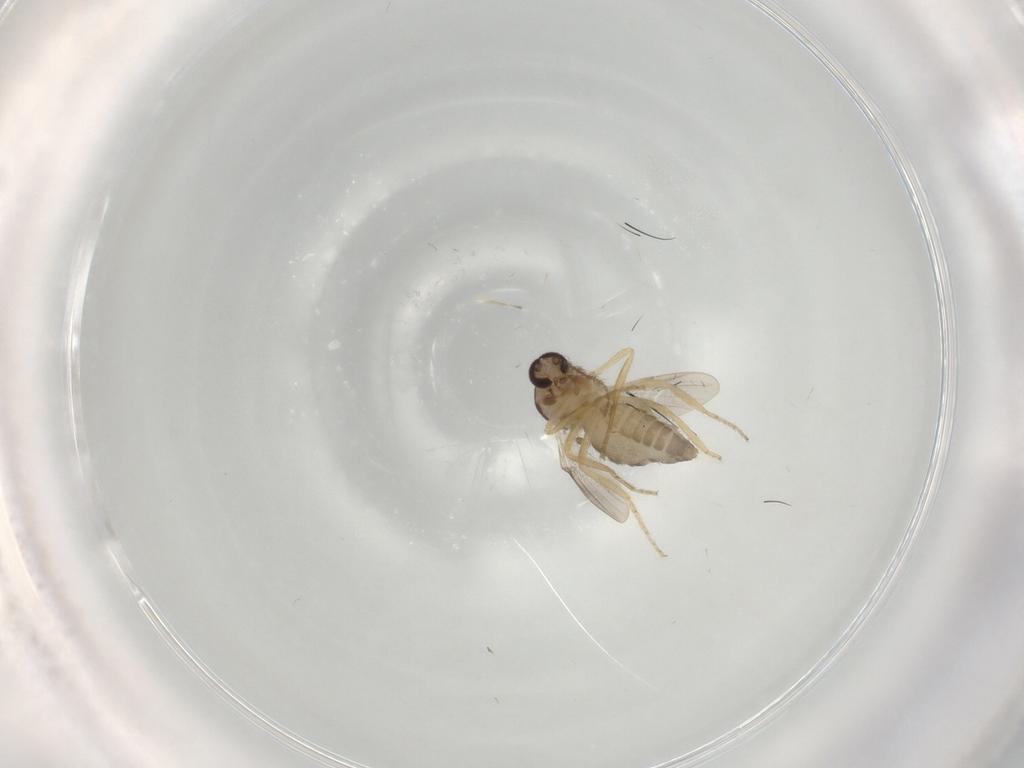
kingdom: Animalia
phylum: Arthropoda
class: Insecta
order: Diptera
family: Ceratopogonidae
